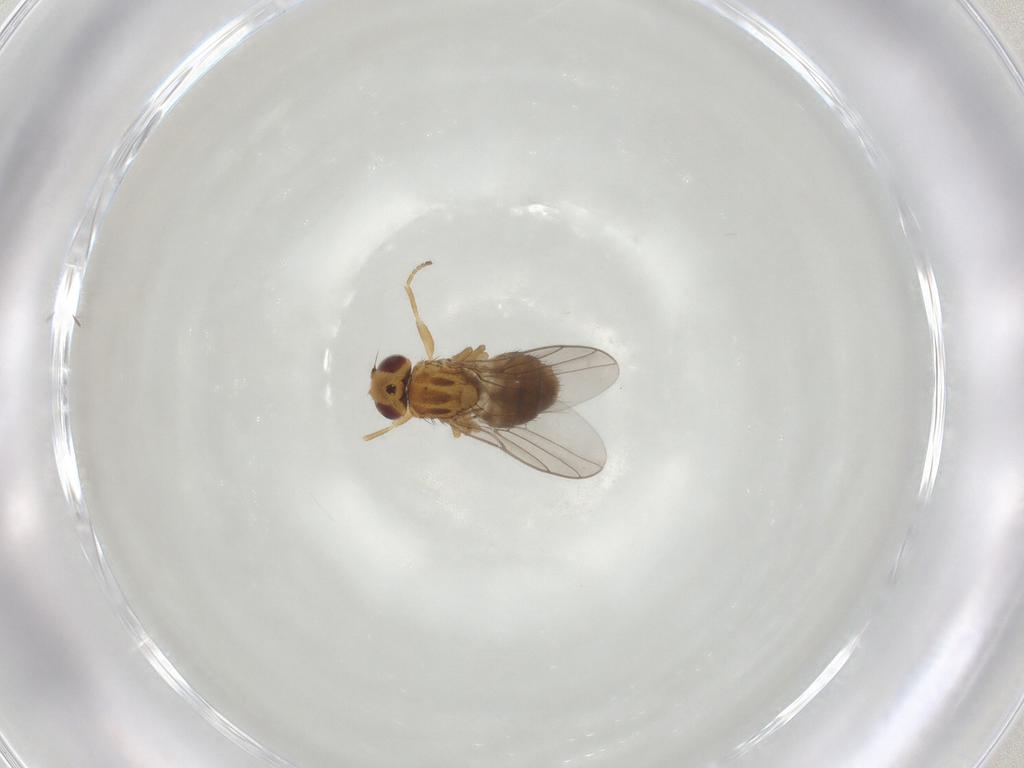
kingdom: Animalia
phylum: Arthropoda
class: Insecta
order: Diptera
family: Chloropidae
